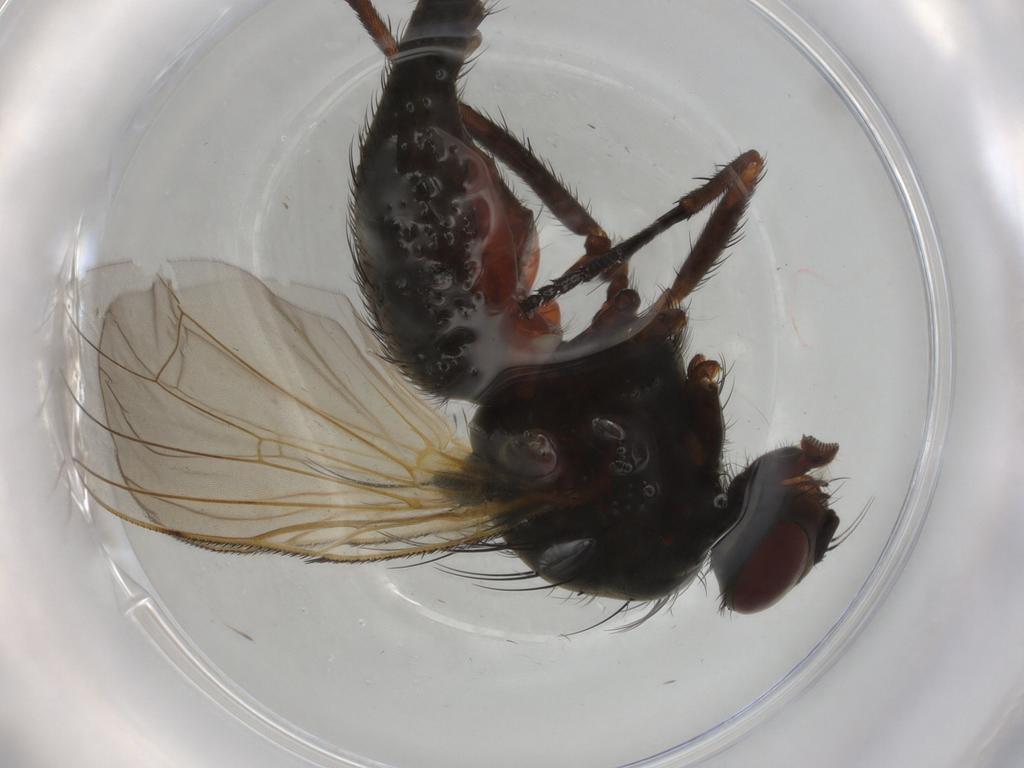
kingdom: Animalia
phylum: Arthropoda
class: Insecta
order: Diptera
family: Anthomyiidae
